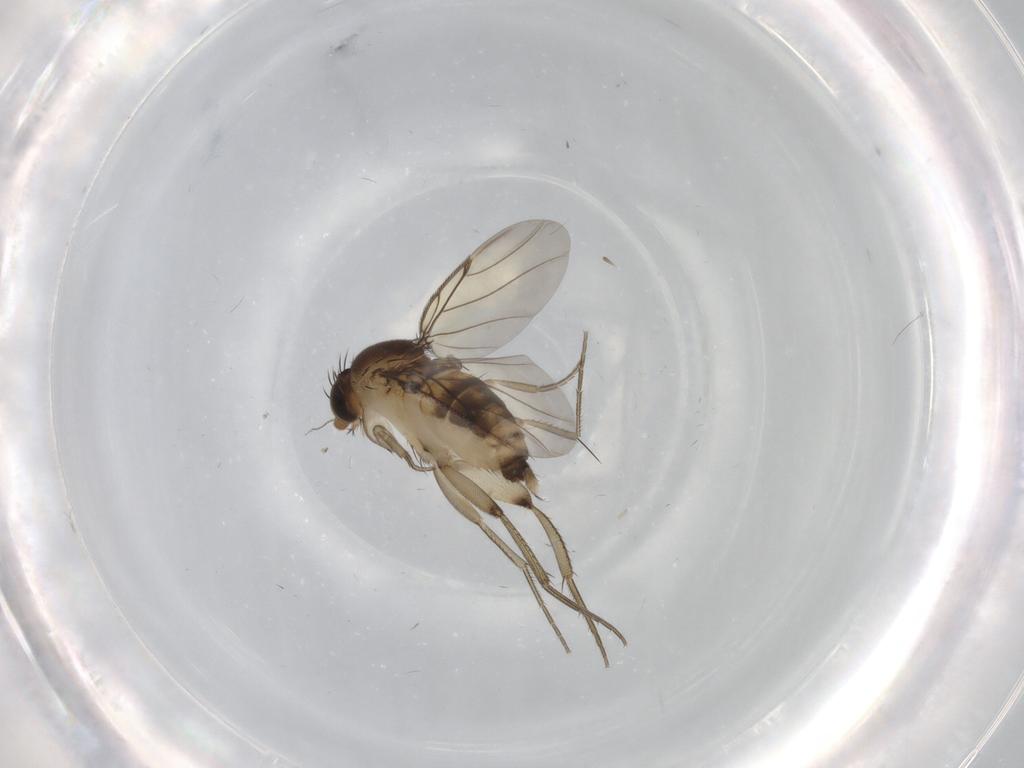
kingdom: Animalia
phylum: Arthropoda
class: Insecta
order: Diptera
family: Phoridae
